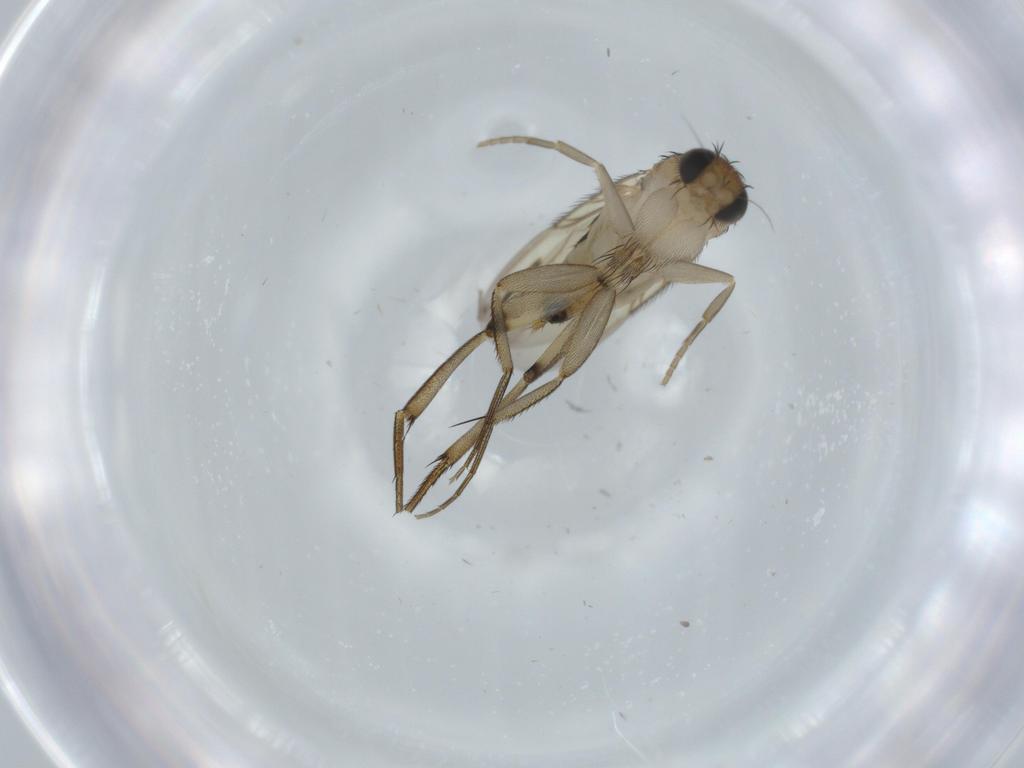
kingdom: Animalia
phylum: Arthropoda
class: Insecta
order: Diptera
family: Phoridae
